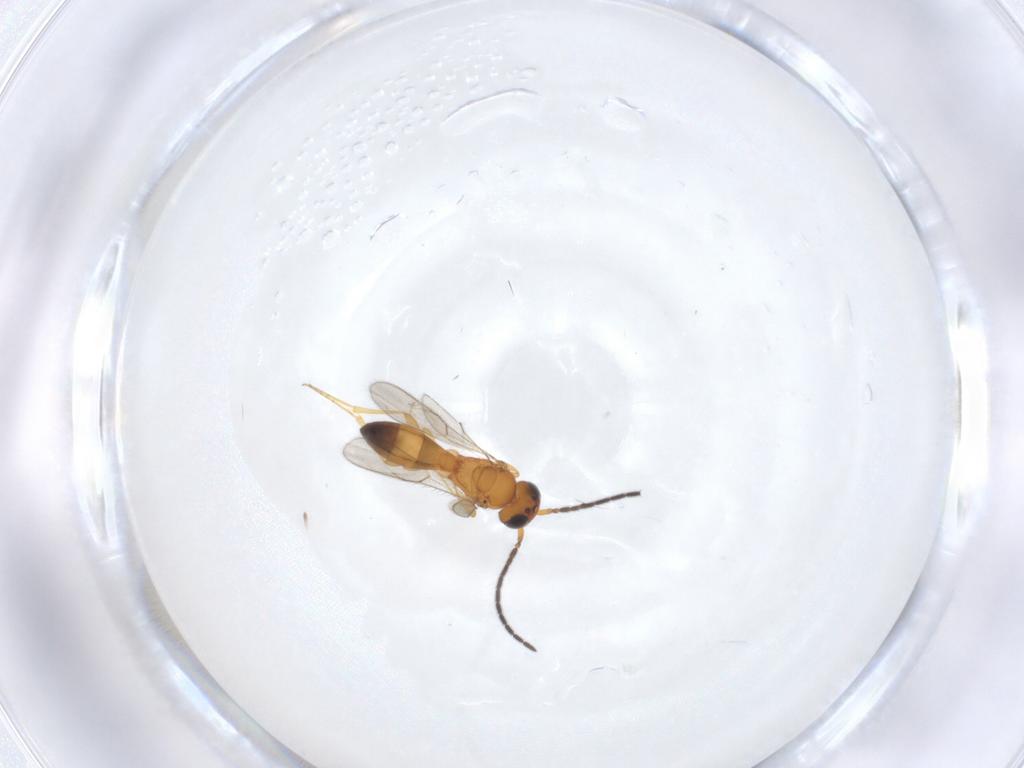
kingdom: Animalia
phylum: Arthropoda
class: Insecta
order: Hymenoptera
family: Scelionidae
